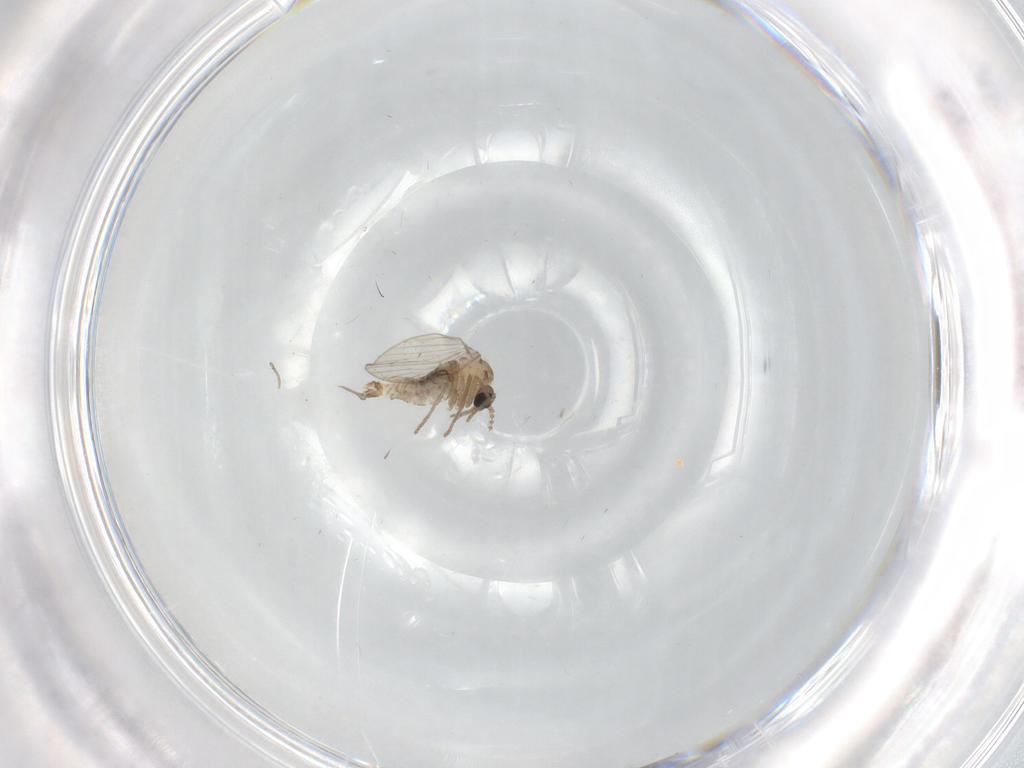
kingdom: Animalia
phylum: Arthropoda
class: Insecta
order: Diptera
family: Psychodidae
